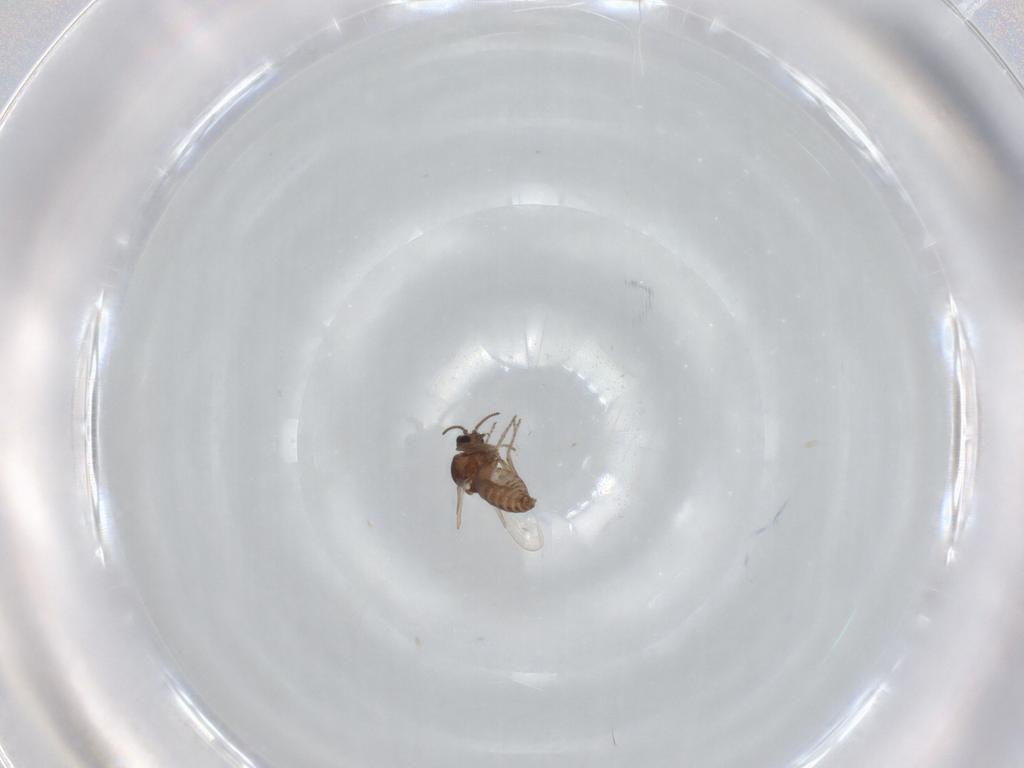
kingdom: Animalia
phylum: Arthropoda
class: Insecta
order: Diptera
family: Ceratopogonidae
